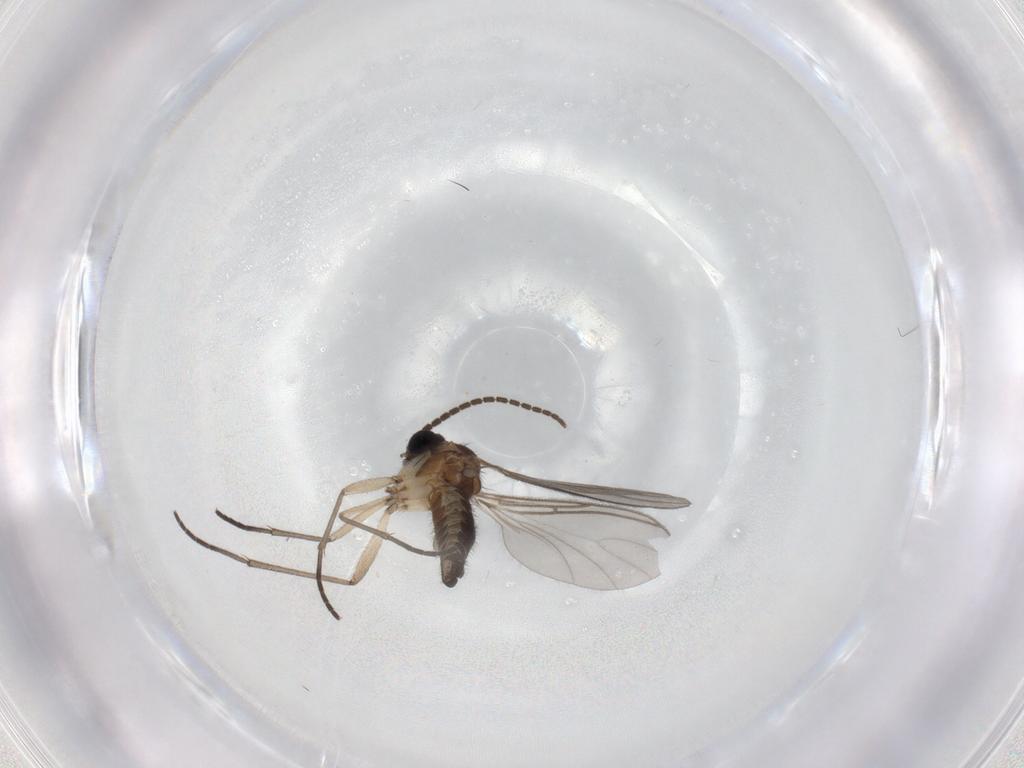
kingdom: Animalia
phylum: Arthropoda
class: Insecta
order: Diptera
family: Sciaridae
